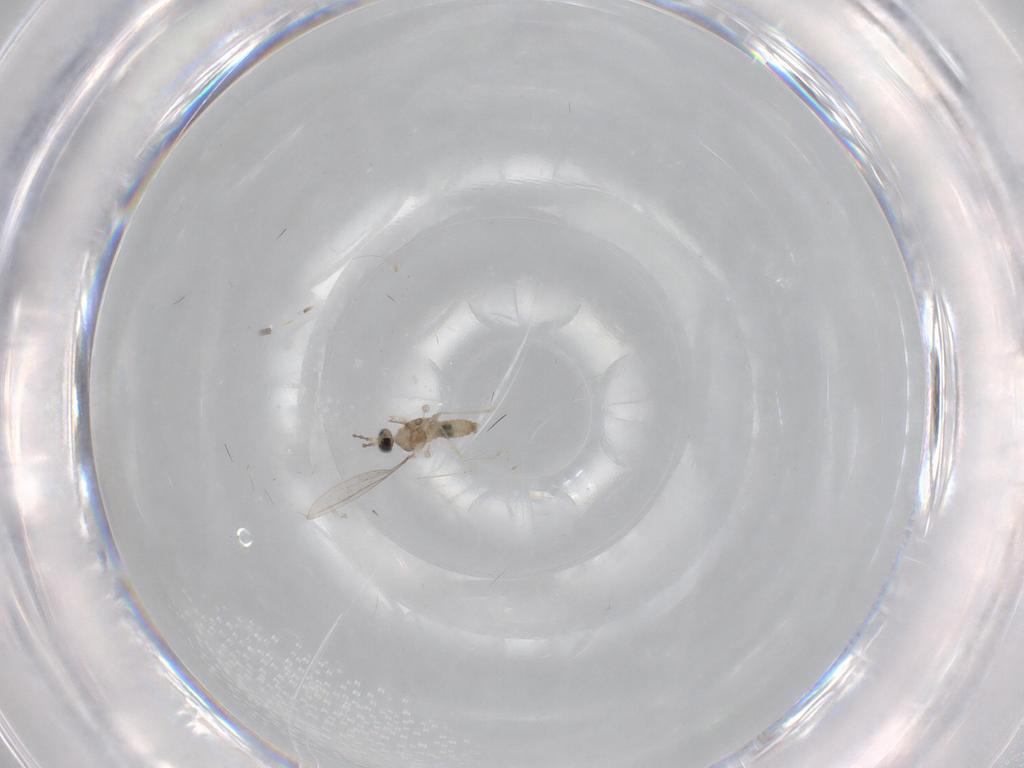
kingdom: Animalia
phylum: Arthropoda
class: Insecta
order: Diptera
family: Cecidomyiidae
